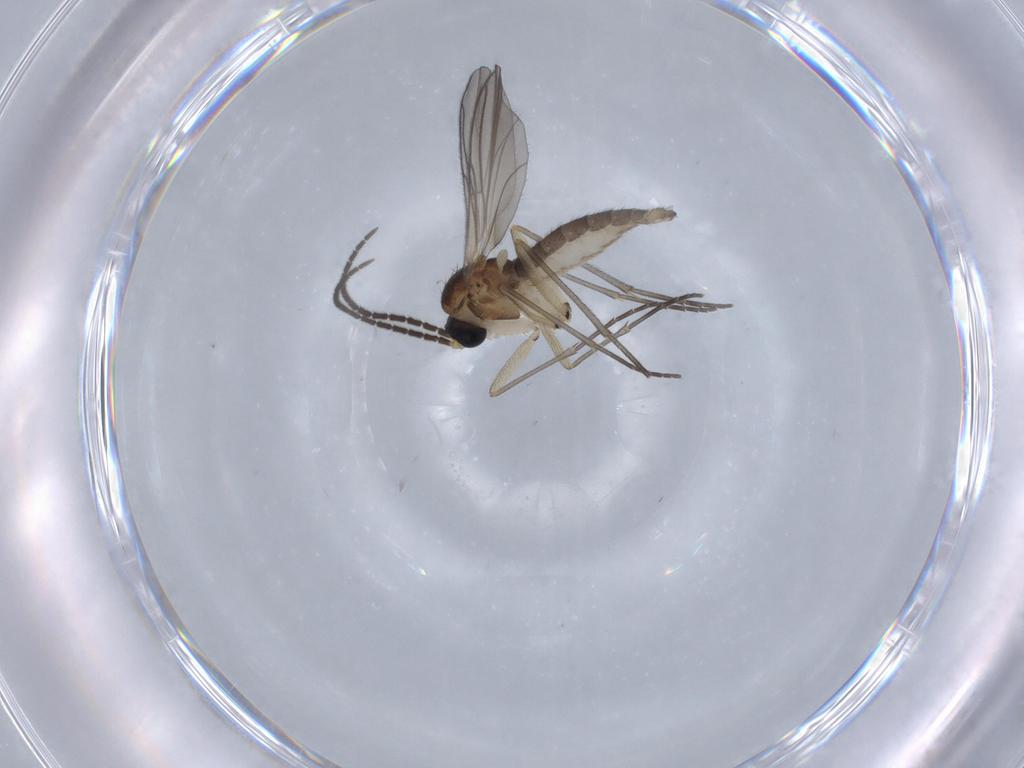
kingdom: Animalia
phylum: Arthropoda
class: Insecta
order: Diptera
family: Sciaridae
